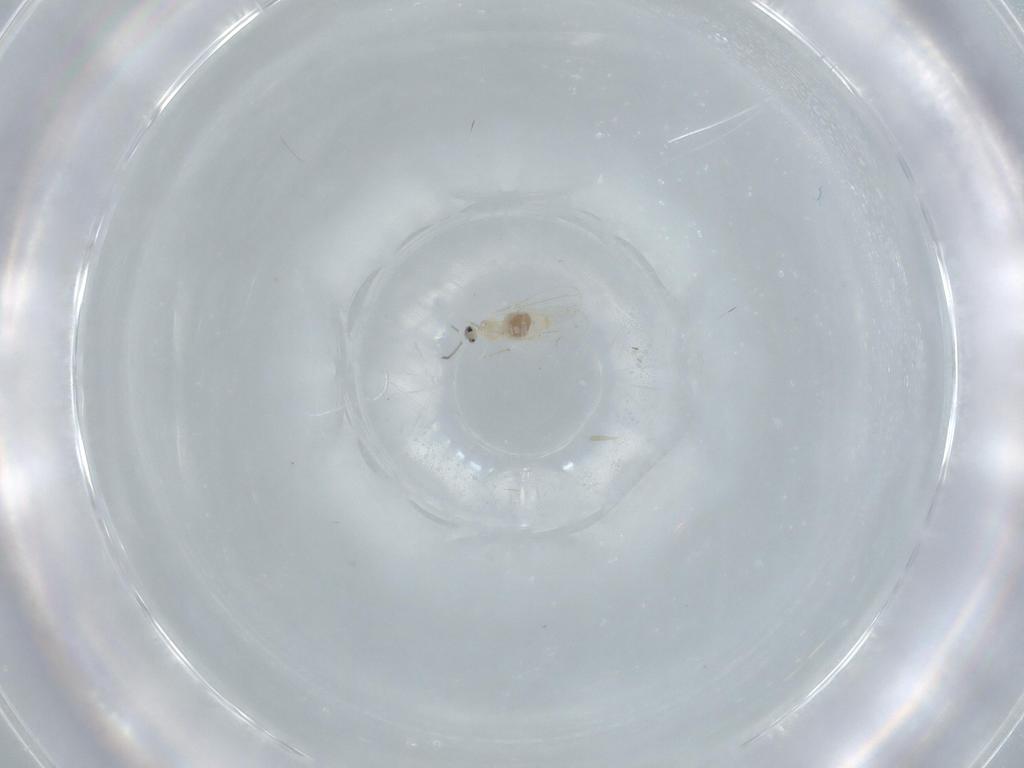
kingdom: Animalia
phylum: Arthropoda
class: Insecta
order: Diptera
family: Cecidomyiidae
